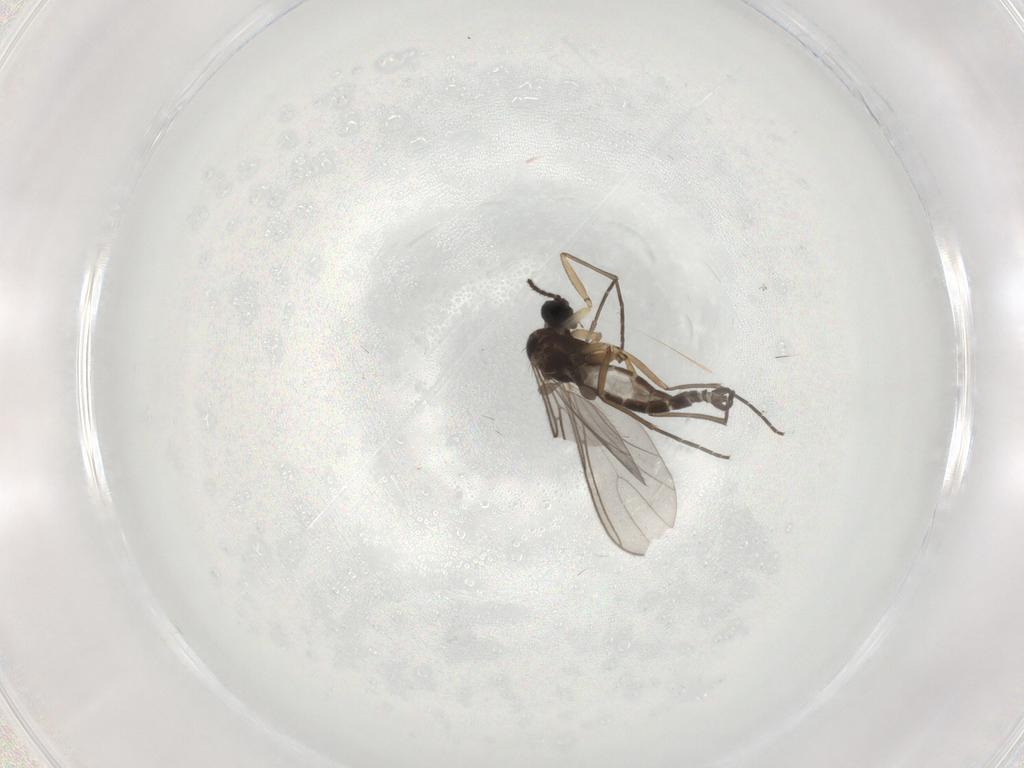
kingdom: Animalia
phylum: Arthropoda
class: Insecta
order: Diptera
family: Sciaridae
